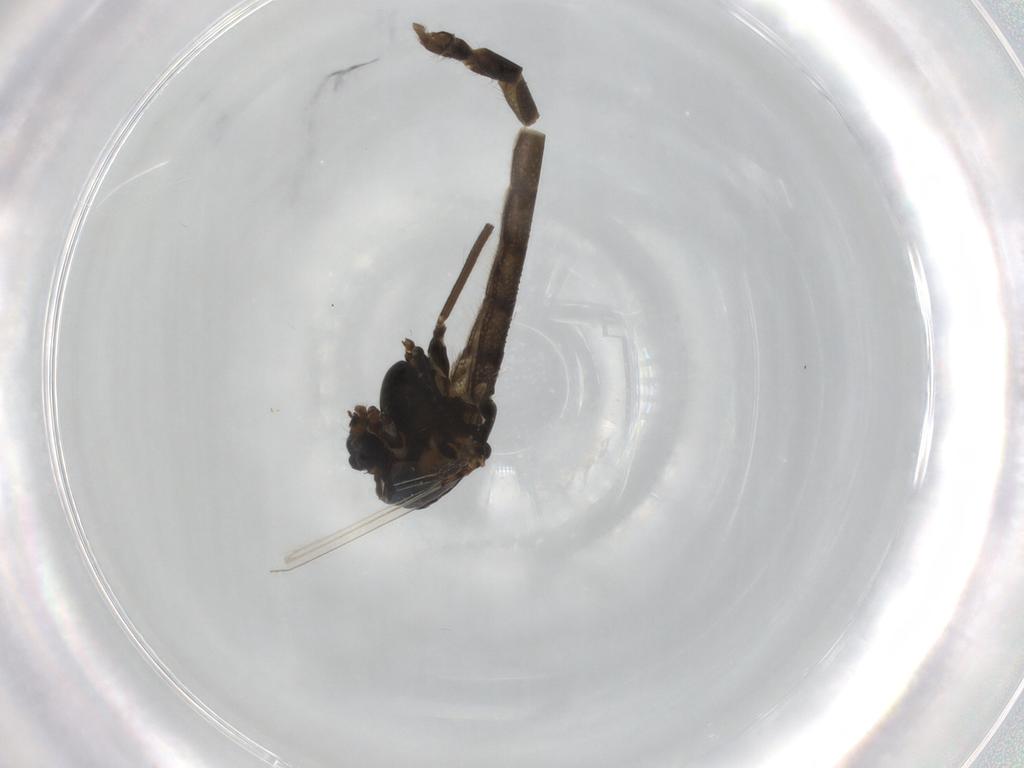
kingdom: Animalia
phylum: Arthropoda
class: Insecta
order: Diptera
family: Chironomidae
